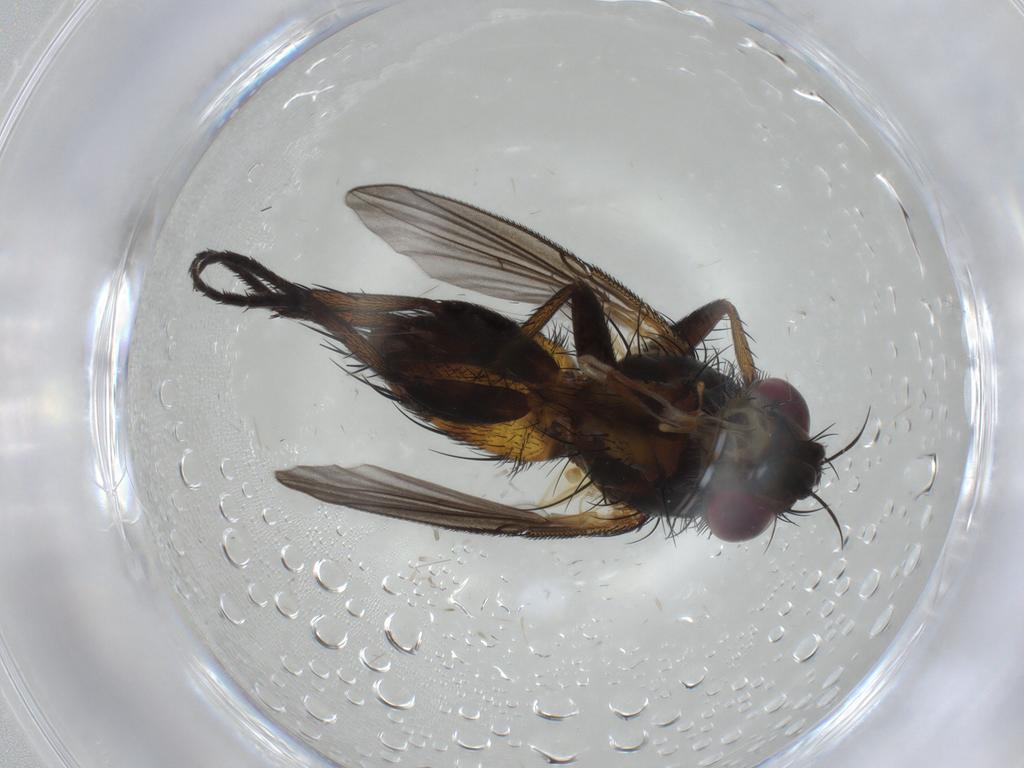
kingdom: Animalia
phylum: Arthropoda
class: Insecta
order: Diptera
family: Tachinidae
